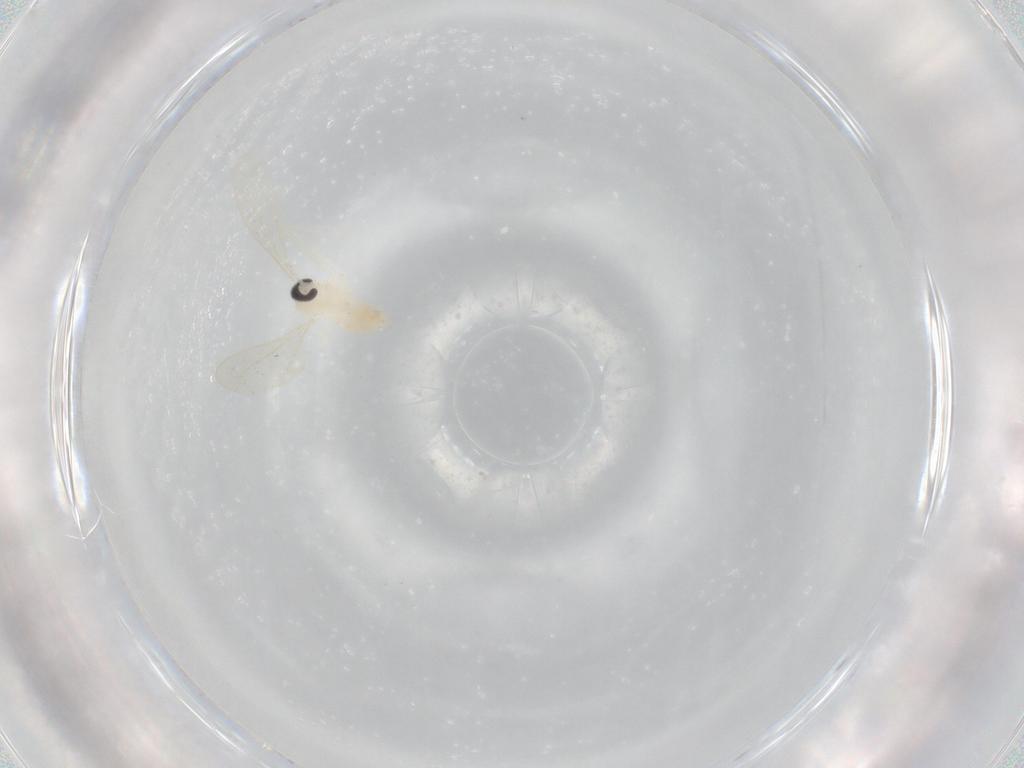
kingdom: Animalia
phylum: Arthropoda
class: Insecta
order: Diptera
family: Cecidomyiidae
